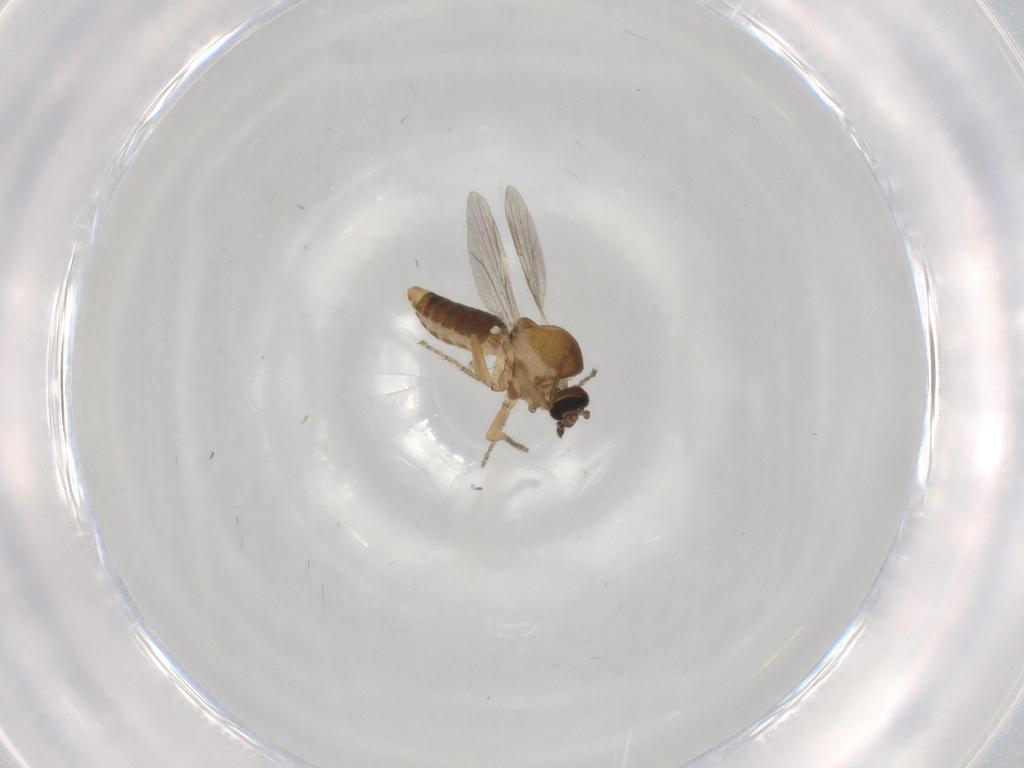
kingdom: Animalia
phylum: Arthropoda
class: Insecta
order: Diptera
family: Ceratopogonidae
